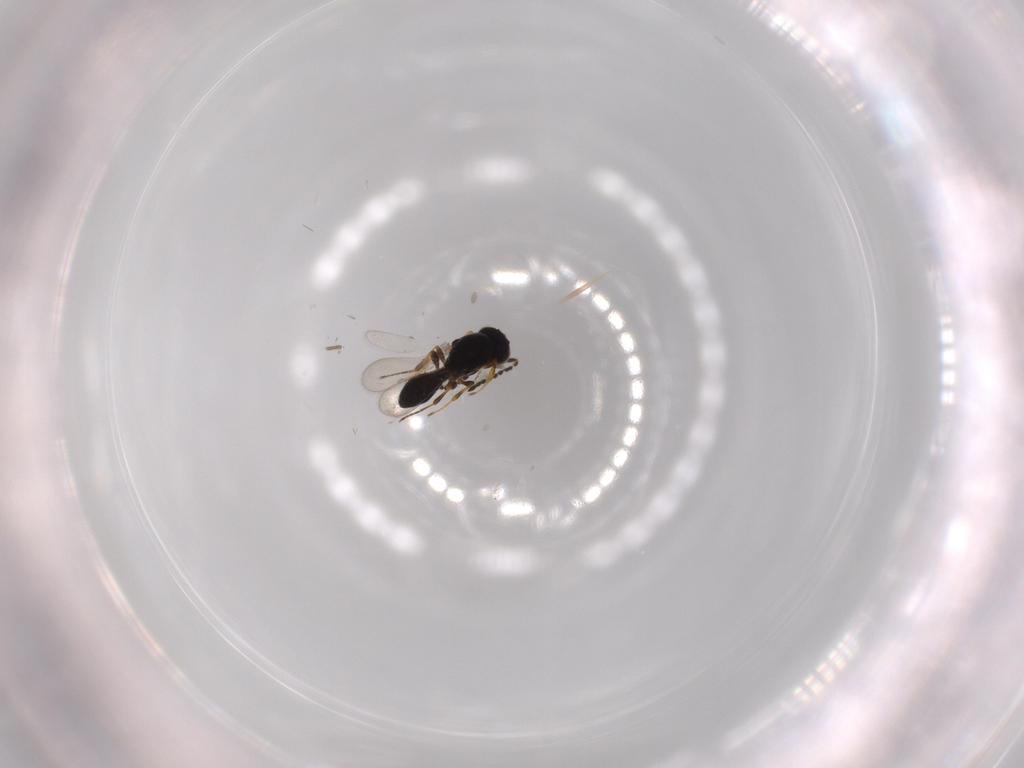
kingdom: Animalia
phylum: Arthropoda
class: Insecta
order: Hymenoptera
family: Platygastridae
